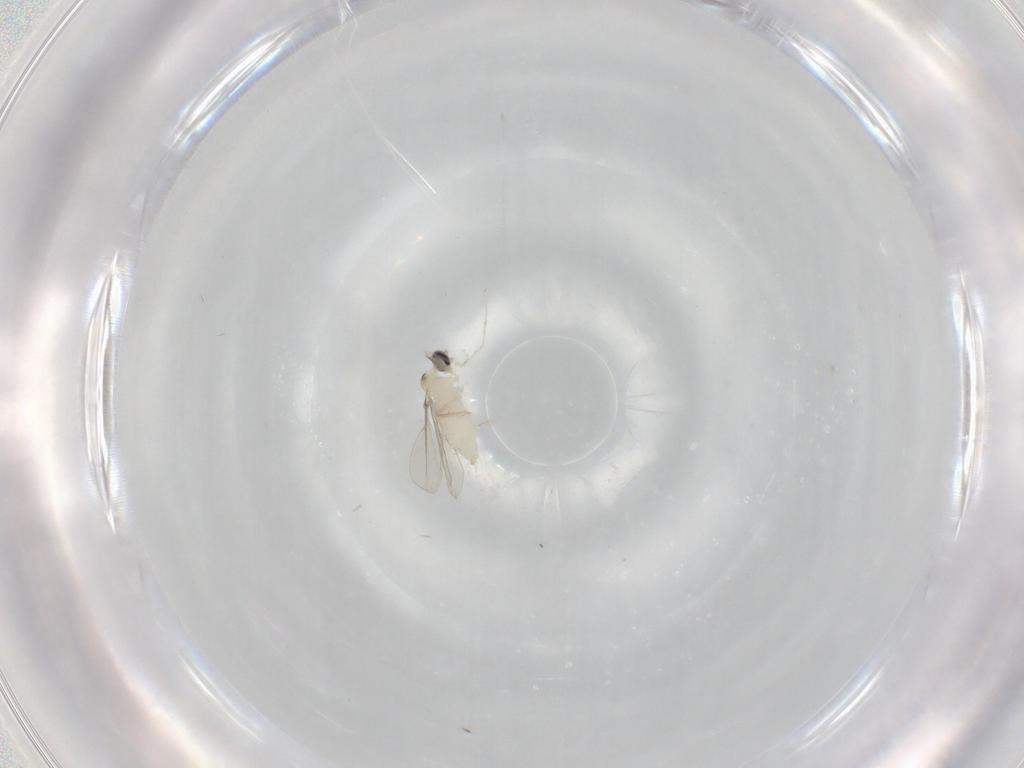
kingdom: Animalia
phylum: Arthropoda
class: Insecta
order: Diptera
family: Cecidomyiidae
